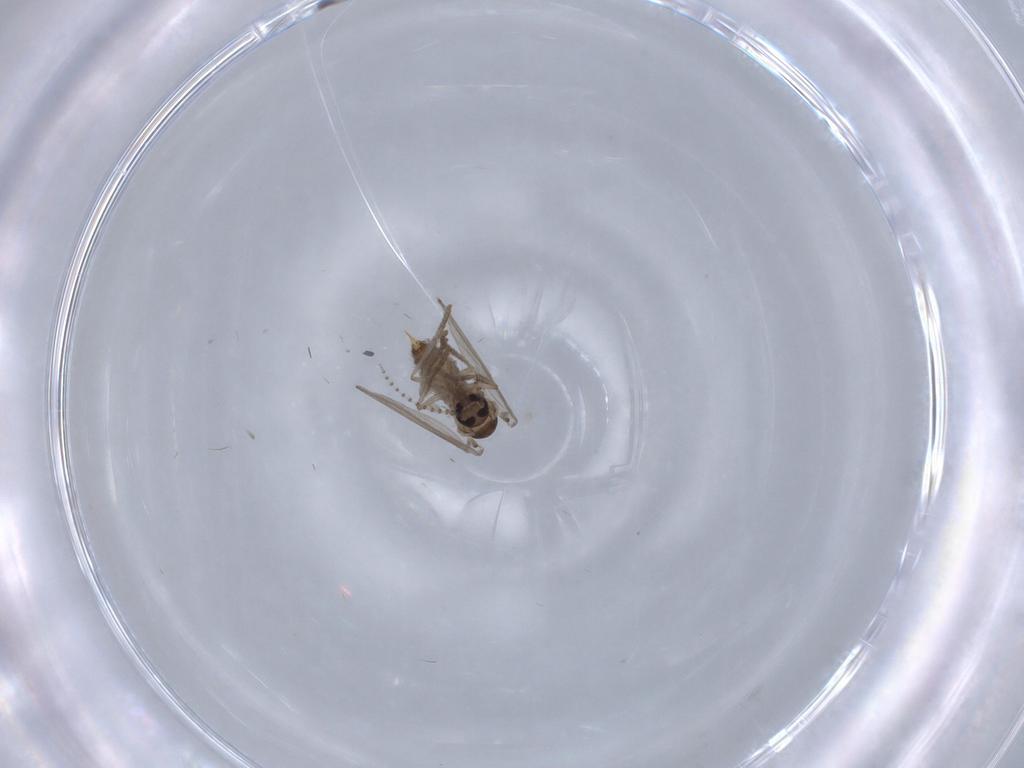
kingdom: Animalia
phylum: Arthropoda
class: Insecta
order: Diptera
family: Psychodidae
